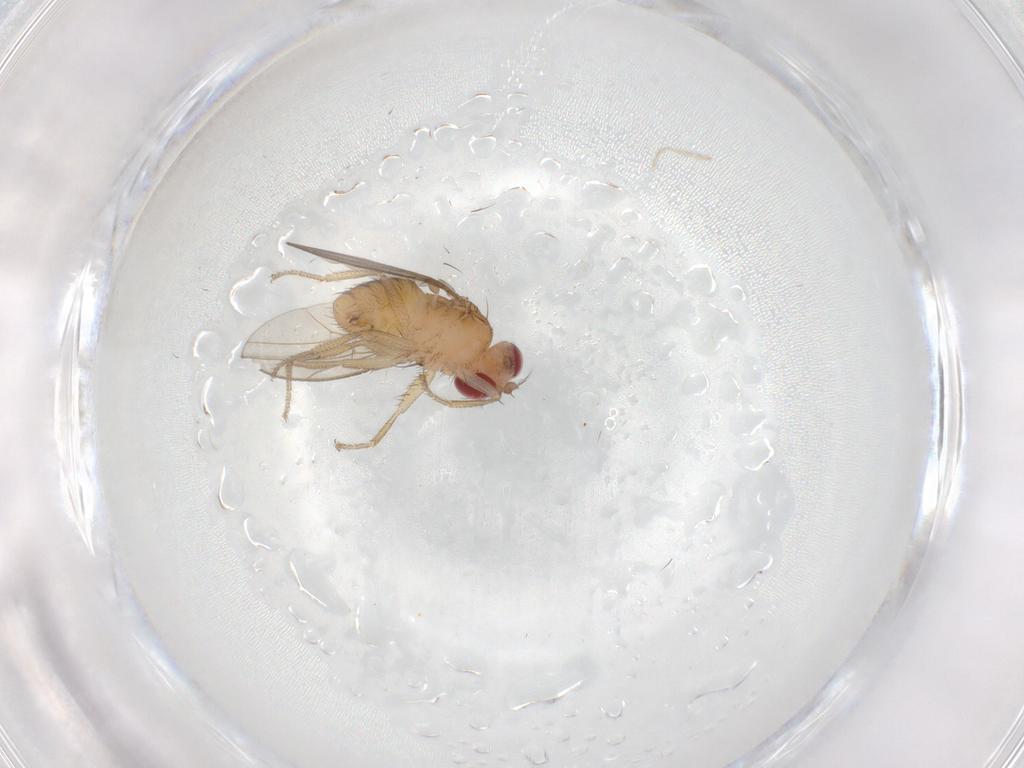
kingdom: Animalia
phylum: Arthropoda
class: Insecta
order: Diptera
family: Drosophilidae
